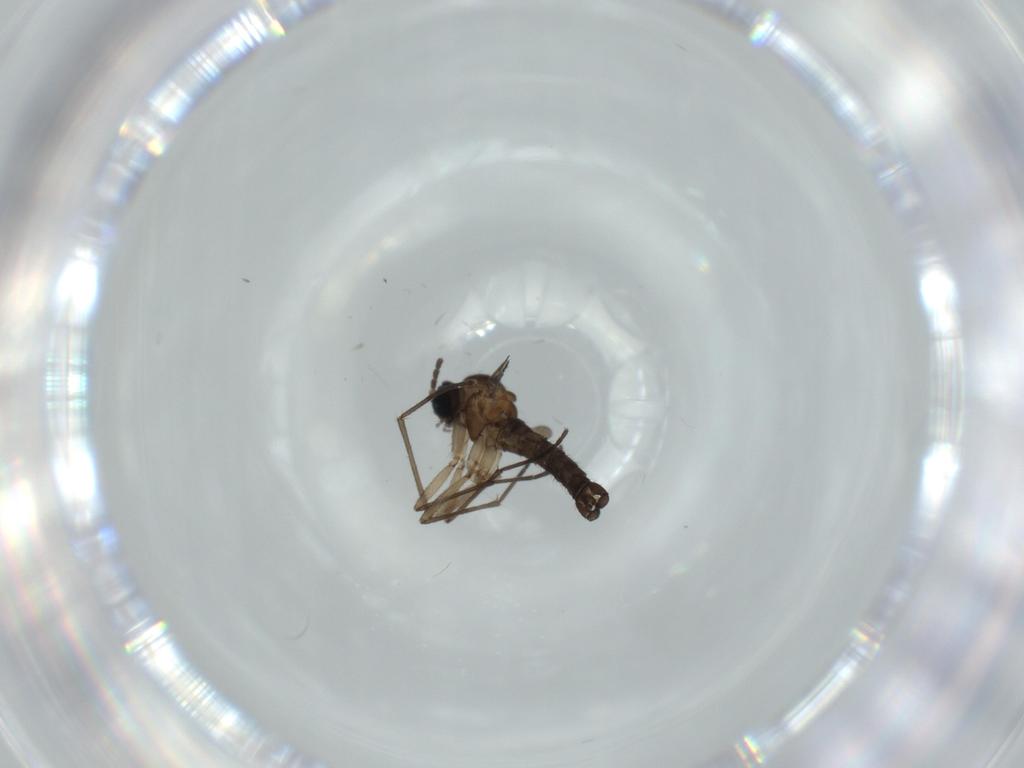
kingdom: Animalia
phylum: Arthropoda
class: Insecta
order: Diptera
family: Sciaridae
